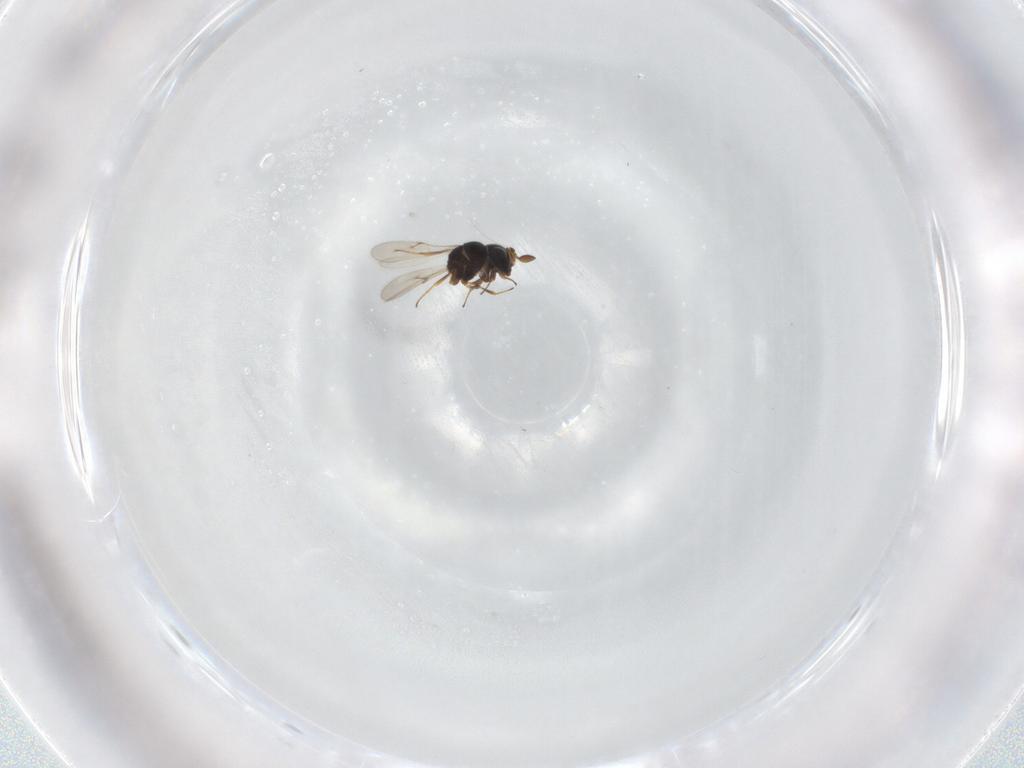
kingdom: Animalia
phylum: Arthropoda
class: Insecta
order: Hymenoptera
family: Scelionidae
